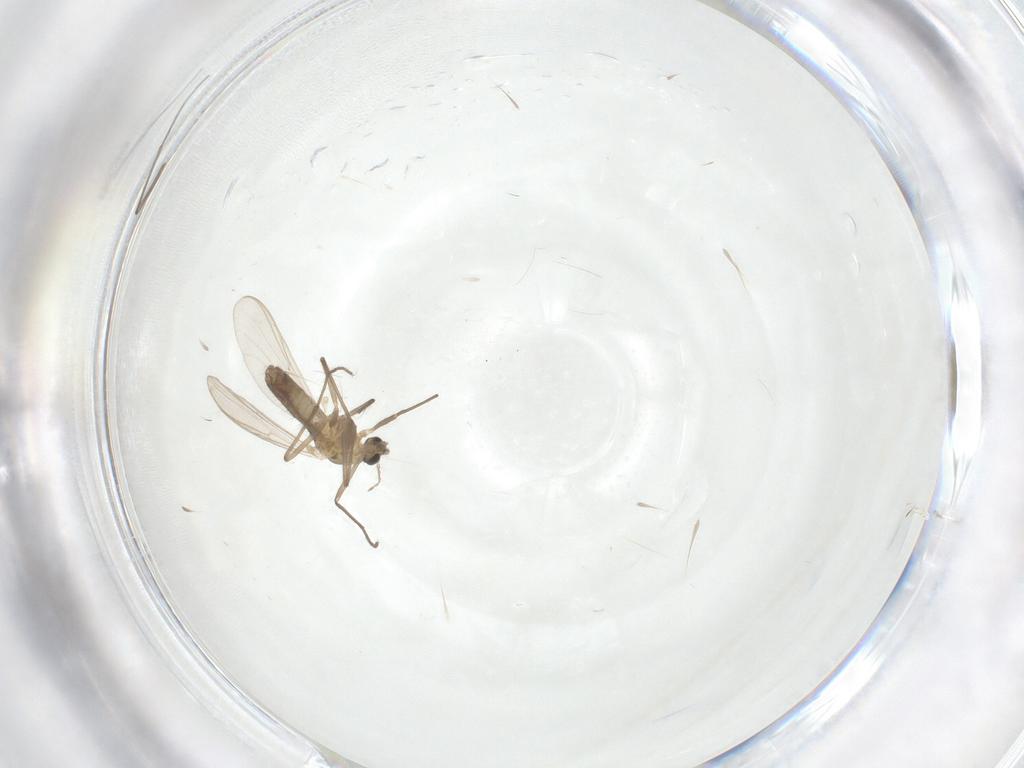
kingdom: Animalia
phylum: Arthropoda
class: Insecta
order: Diptera
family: Chironomidae
